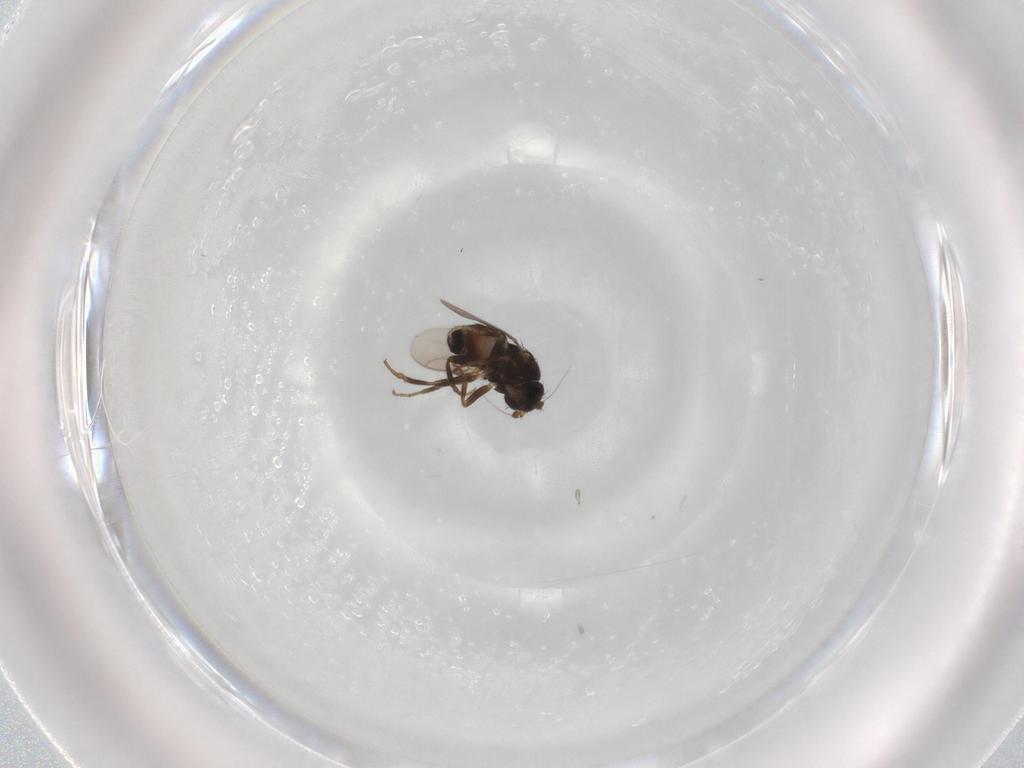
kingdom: Animalia
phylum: Arthropoda
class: Insecta
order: Diptera
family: Sphaeroceridae
